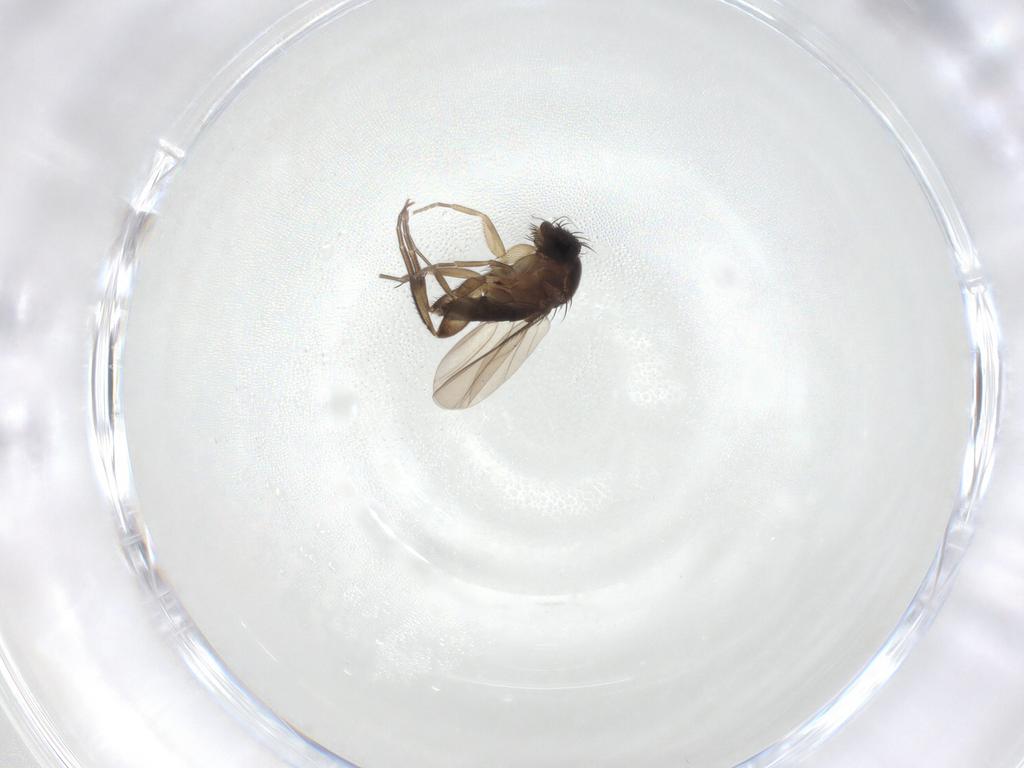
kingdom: Animalia
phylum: Arthropoda
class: Insecta
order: Diptera
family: Phoridae
